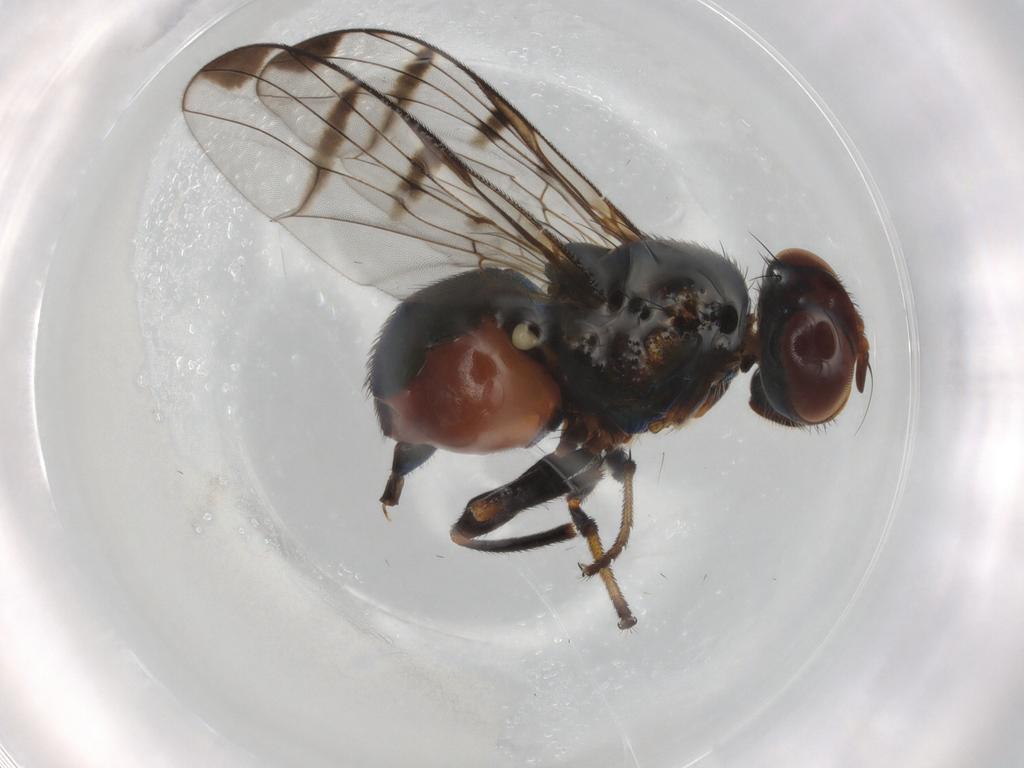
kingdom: Animalia
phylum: Arthropoda
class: Insecta
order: Diptera
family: Platystomatidae
